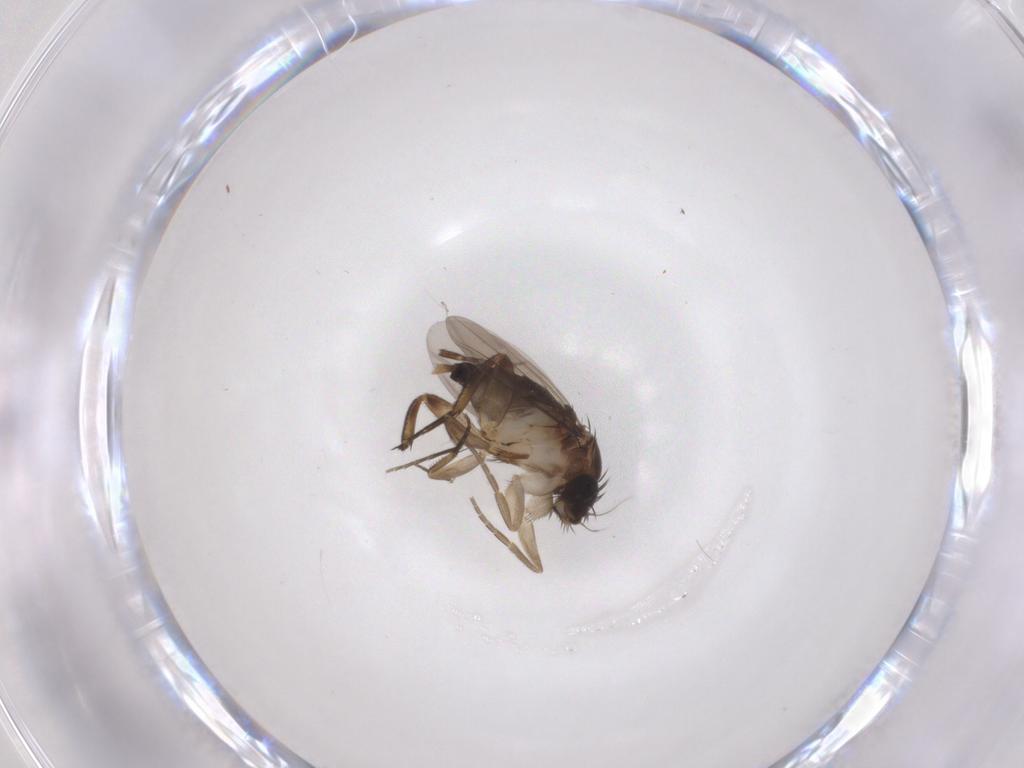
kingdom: Animalia
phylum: Arthropoda
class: Insecta
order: Diptera
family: Phoridae
